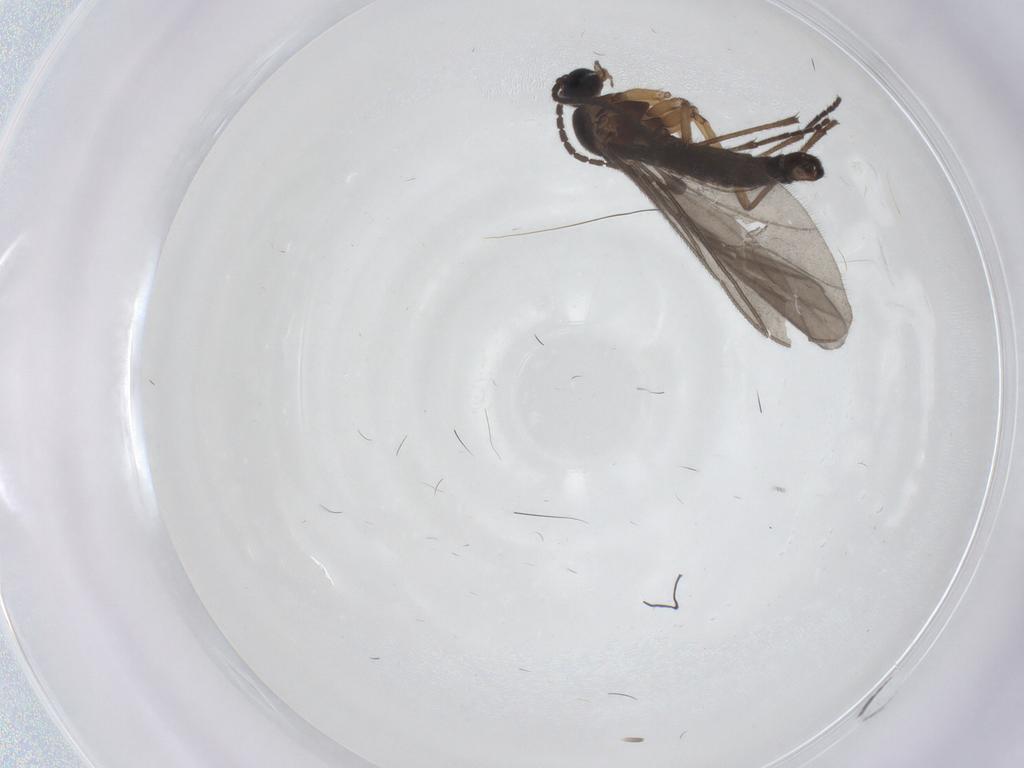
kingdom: Animalia
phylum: Arthropoda
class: Insecta
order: Diptera
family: Sciaridae
